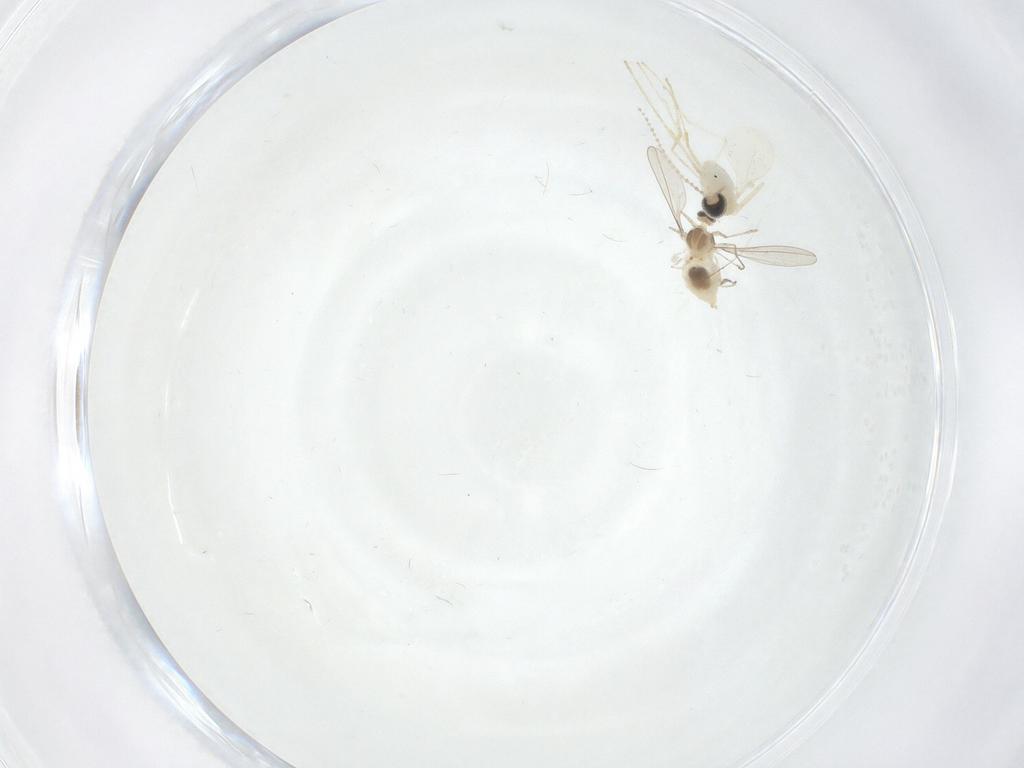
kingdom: Animalia
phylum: Arthropoda
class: Insecta
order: Diptera
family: Cecidomyiidae
